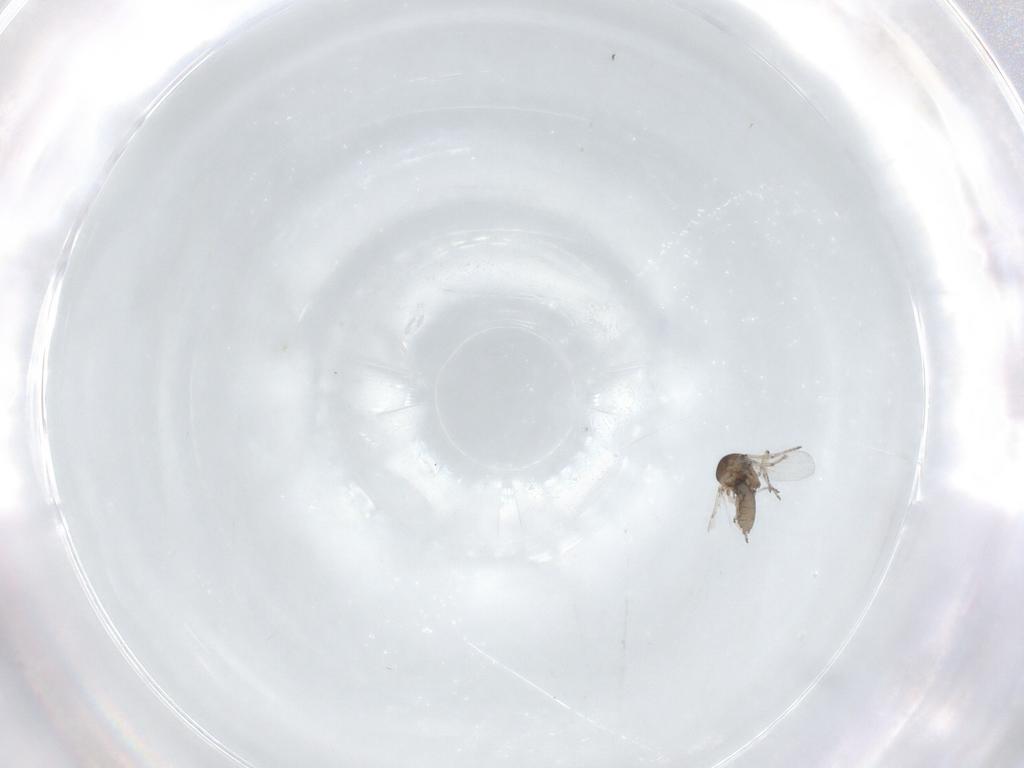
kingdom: Animalia
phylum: Arthropoda
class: Insecta
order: Diptera
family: Ceratopogonidae
